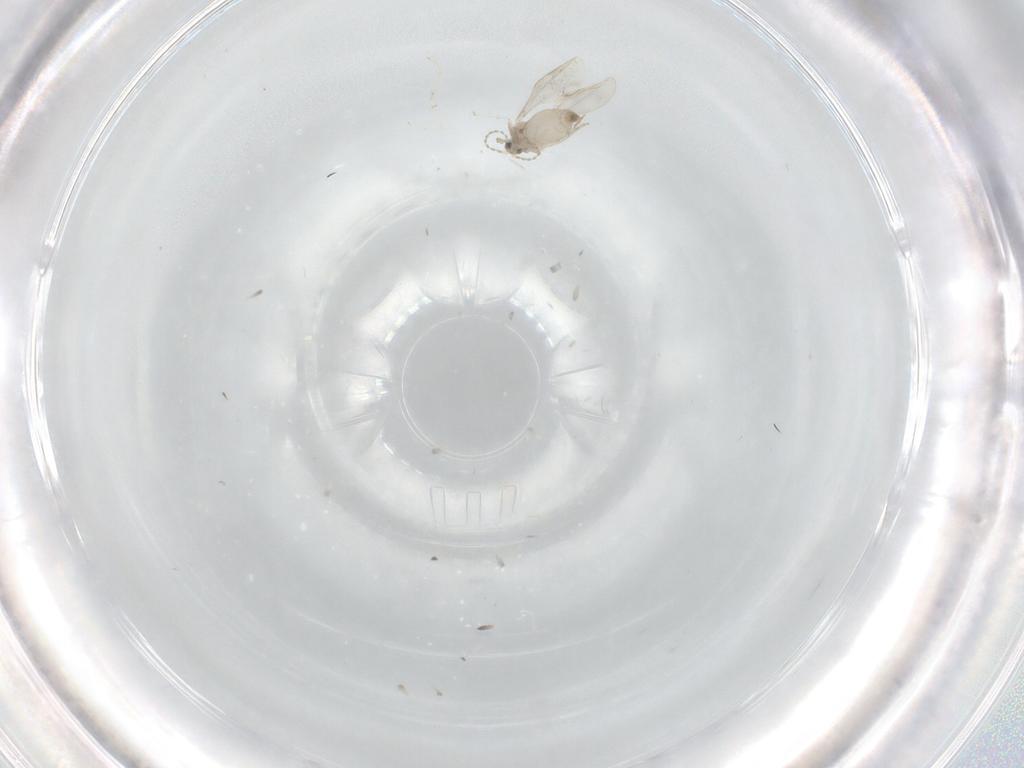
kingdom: Animalia
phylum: Arthropoda
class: Insecta
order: Diptera
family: Cecidomyiidae
